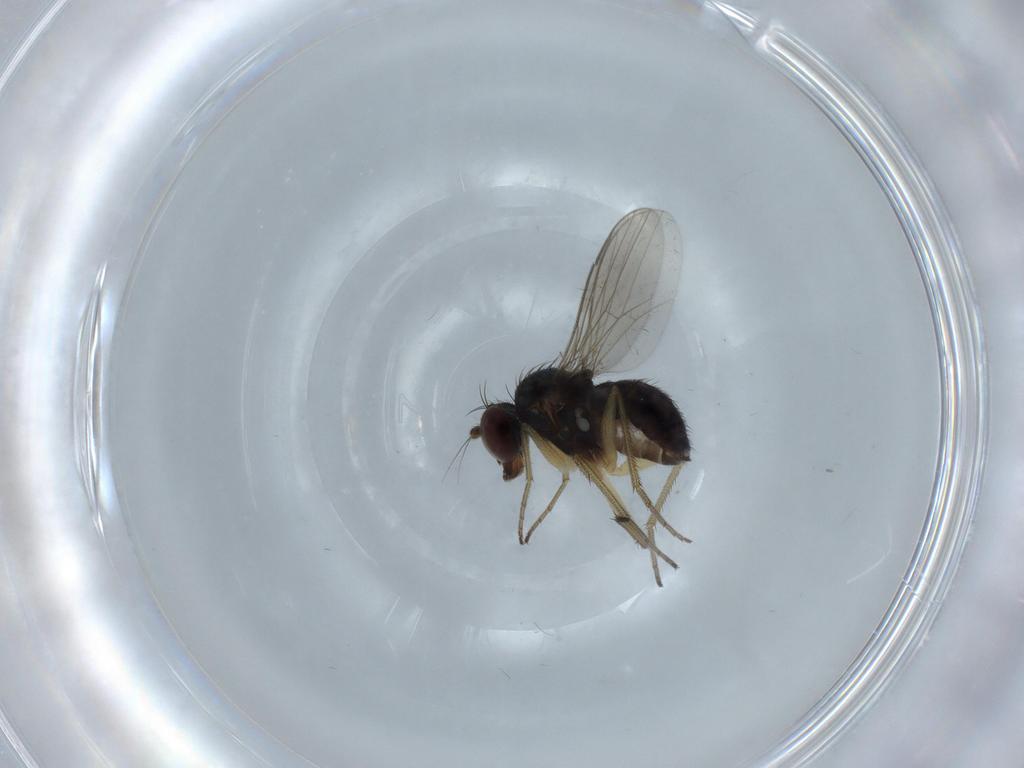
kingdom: Animalia
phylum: Arthropoda
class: Insecta
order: Diptera
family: Dolichopodidae
